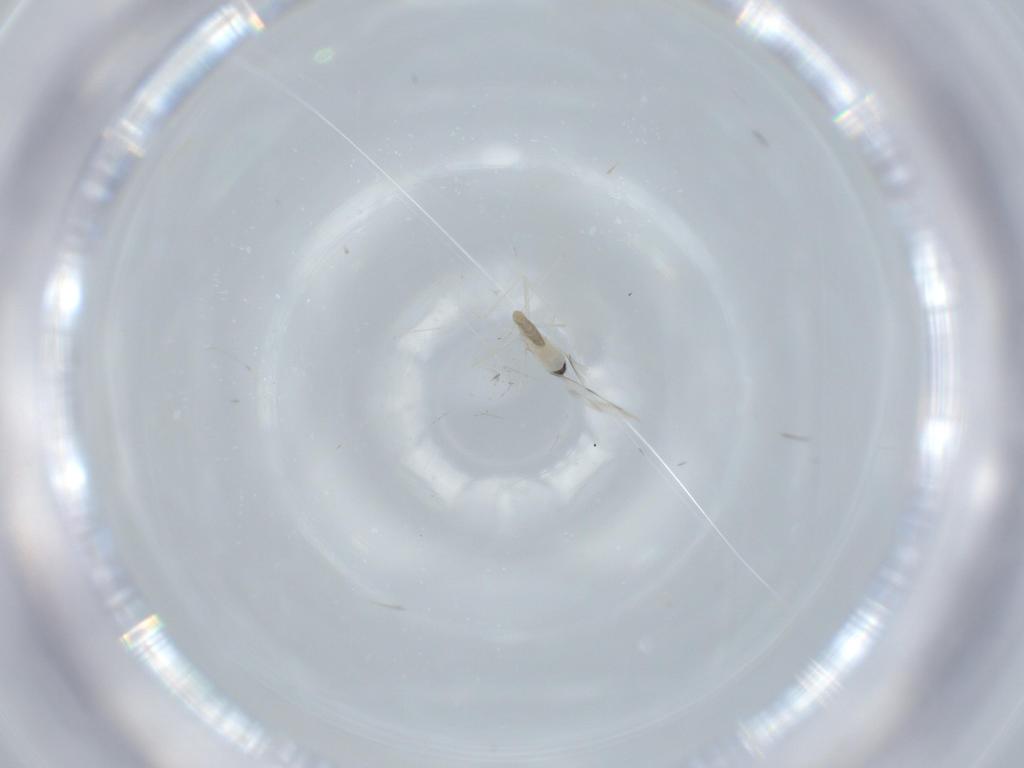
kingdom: Animalia
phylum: Arthropoda
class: Insecta
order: Diptera
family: Cecidomyiidae
